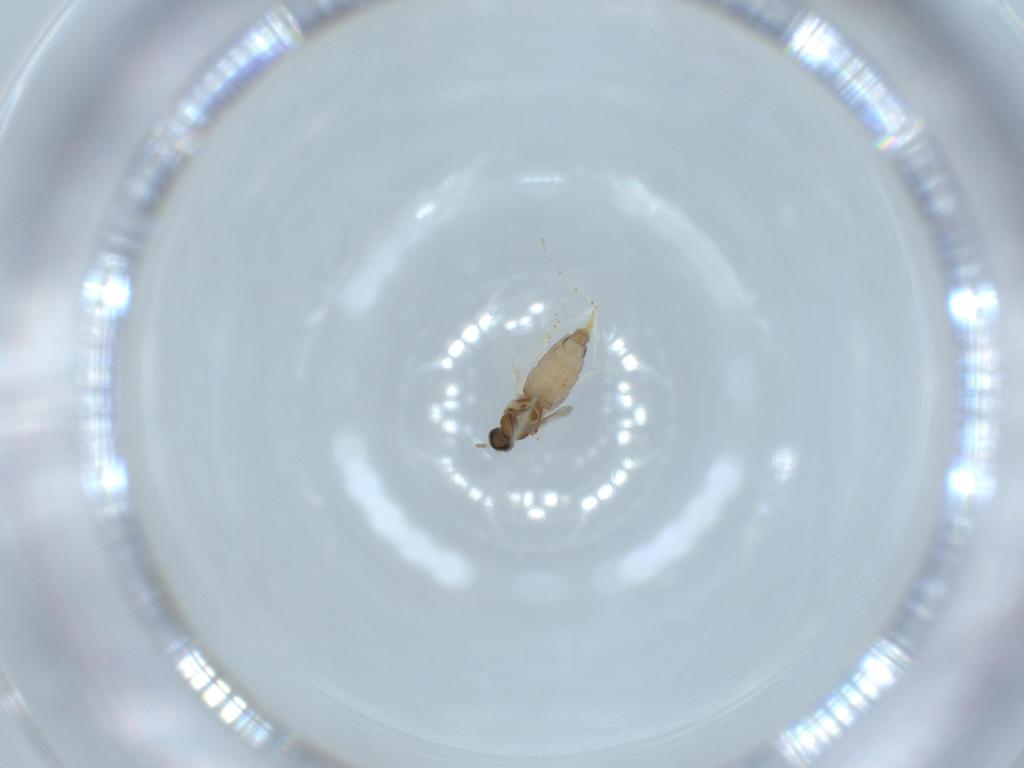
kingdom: Animalia
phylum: Arthropoda
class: Insecta
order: Diptera
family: Cecidomyiidae
